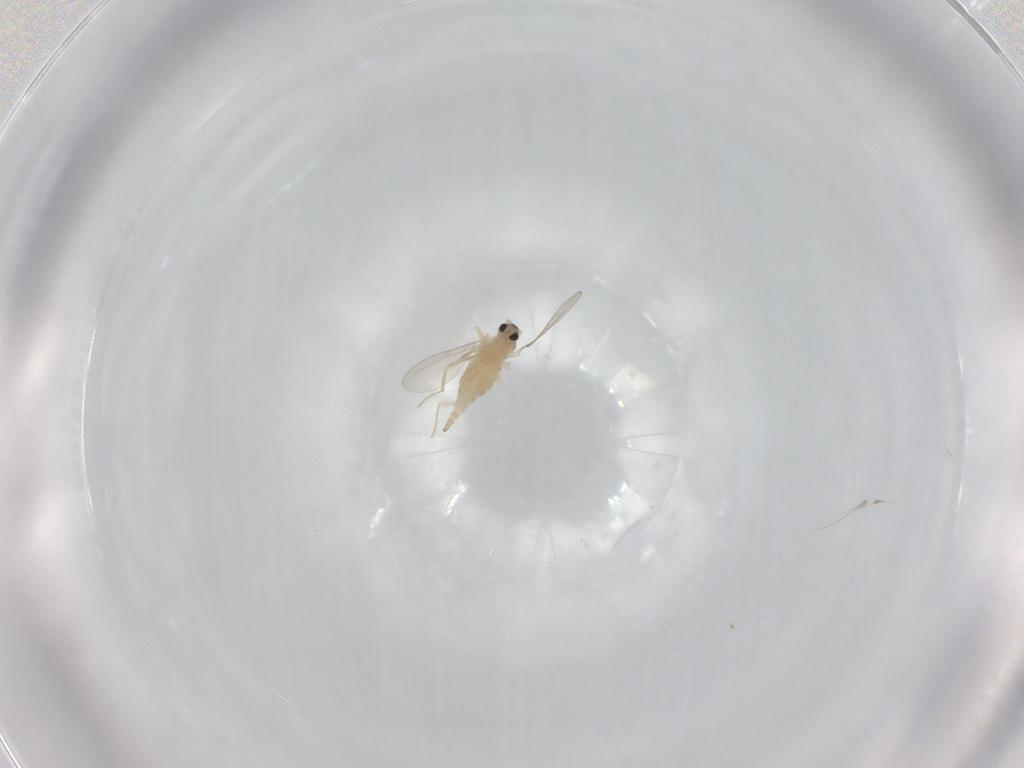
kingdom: Animalia
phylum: Arthropoda
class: Insecta
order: Diptera
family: Cecidomyiidae
